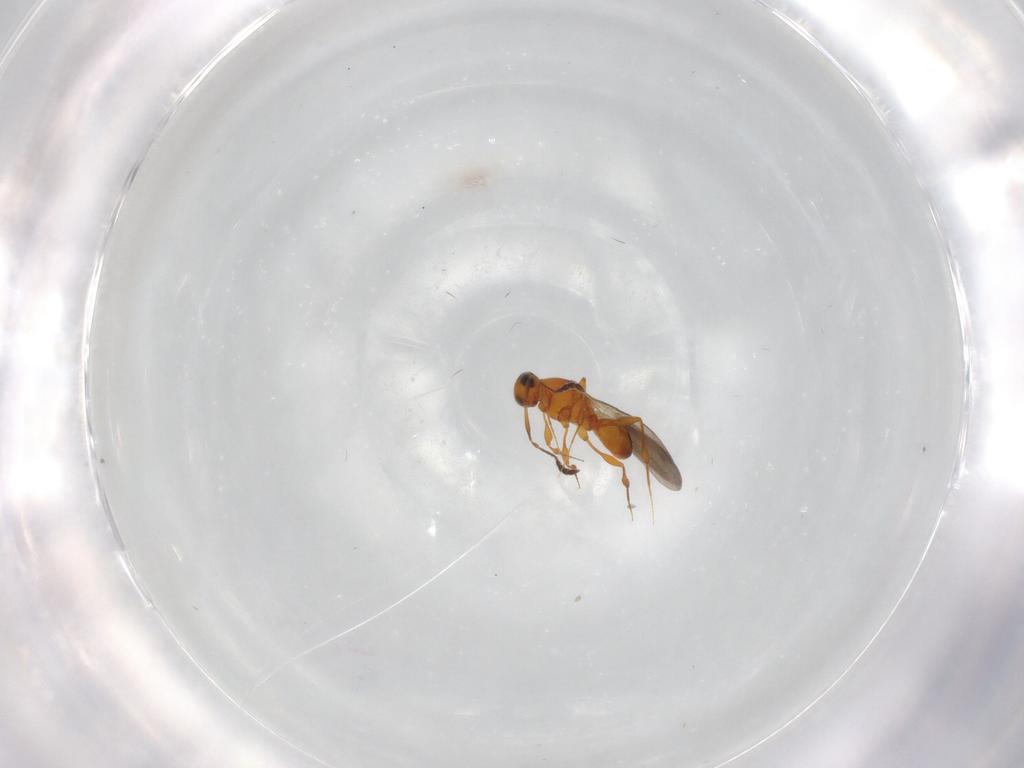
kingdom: Animalia
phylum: Arthropoda
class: Insecta
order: Hymenoptera
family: Platygastridae
